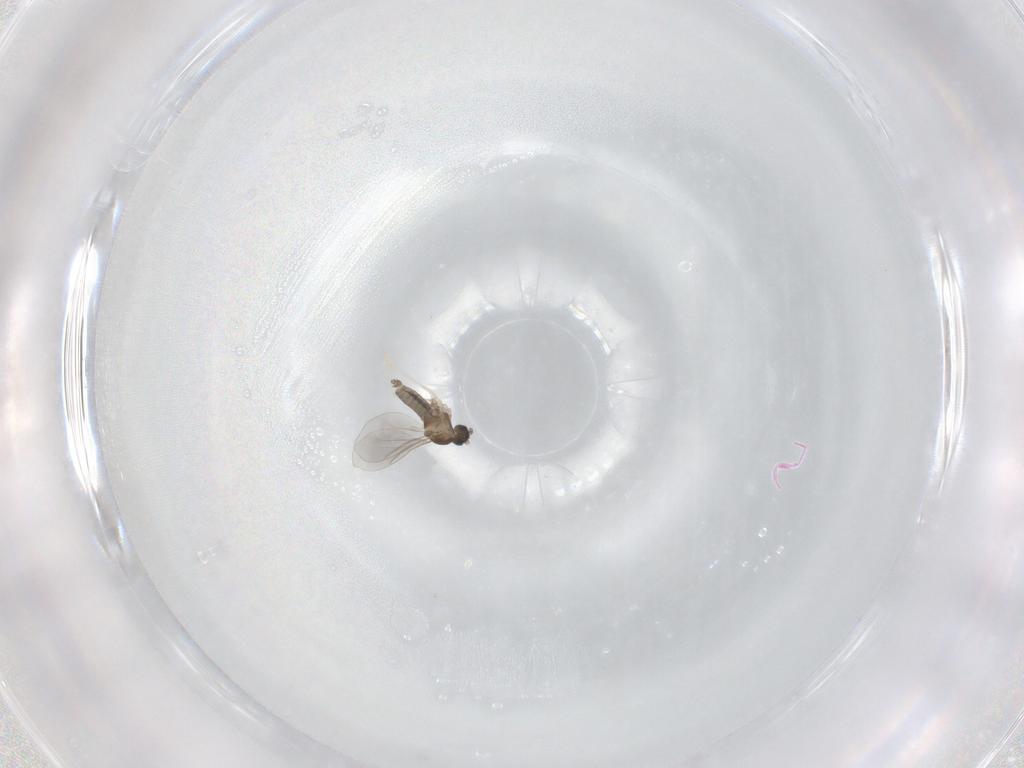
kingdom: Animalia
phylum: Arthropoda
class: Insecta
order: Diptera
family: Cecidomyiidae
